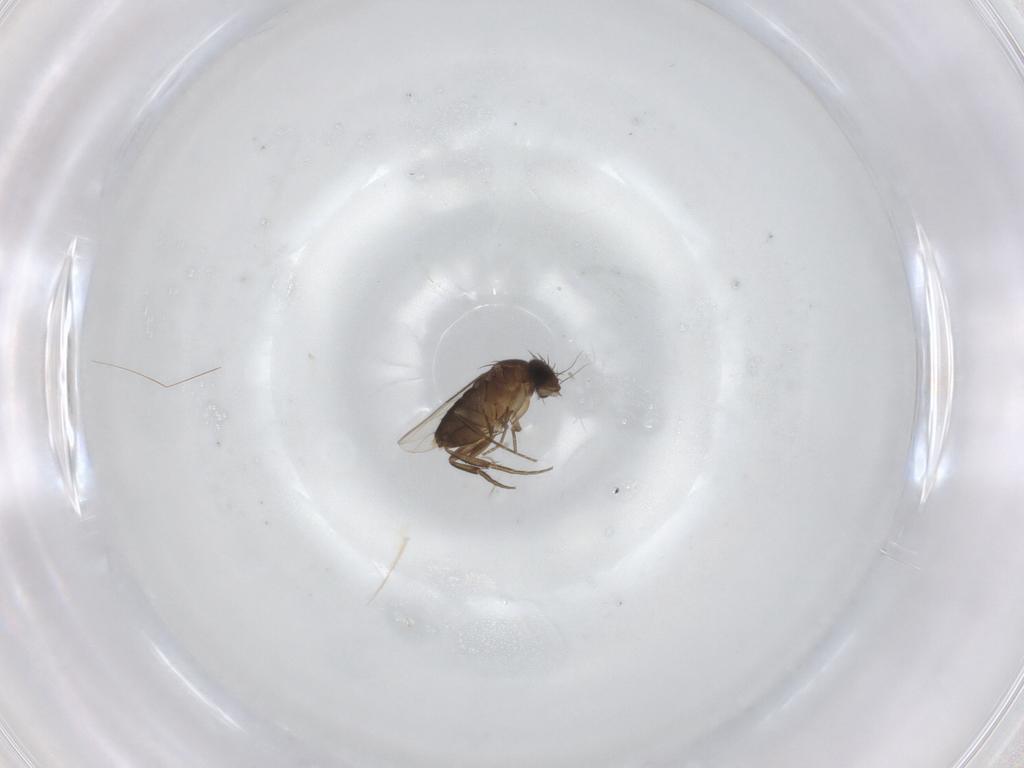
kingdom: Animalia
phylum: Arthropoda
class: Insecta
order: Diptera
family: Phoridae
